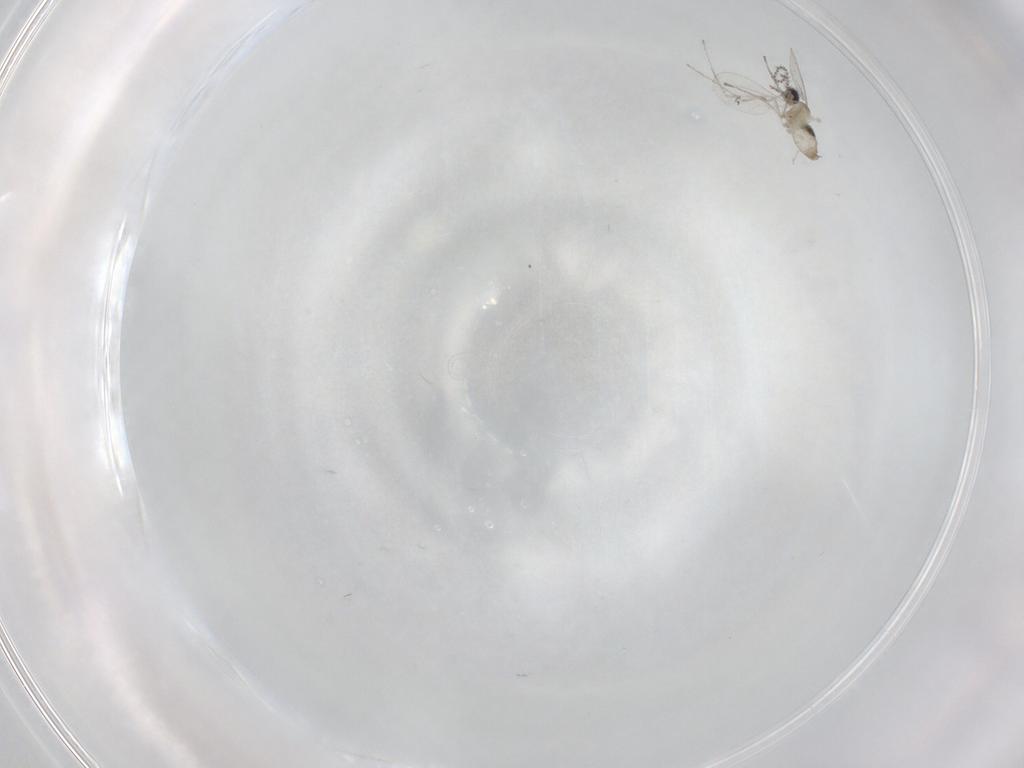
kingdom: Animalia
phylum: Arthropoda
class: Insecta
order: Diptera
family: Cecidomyiidae
